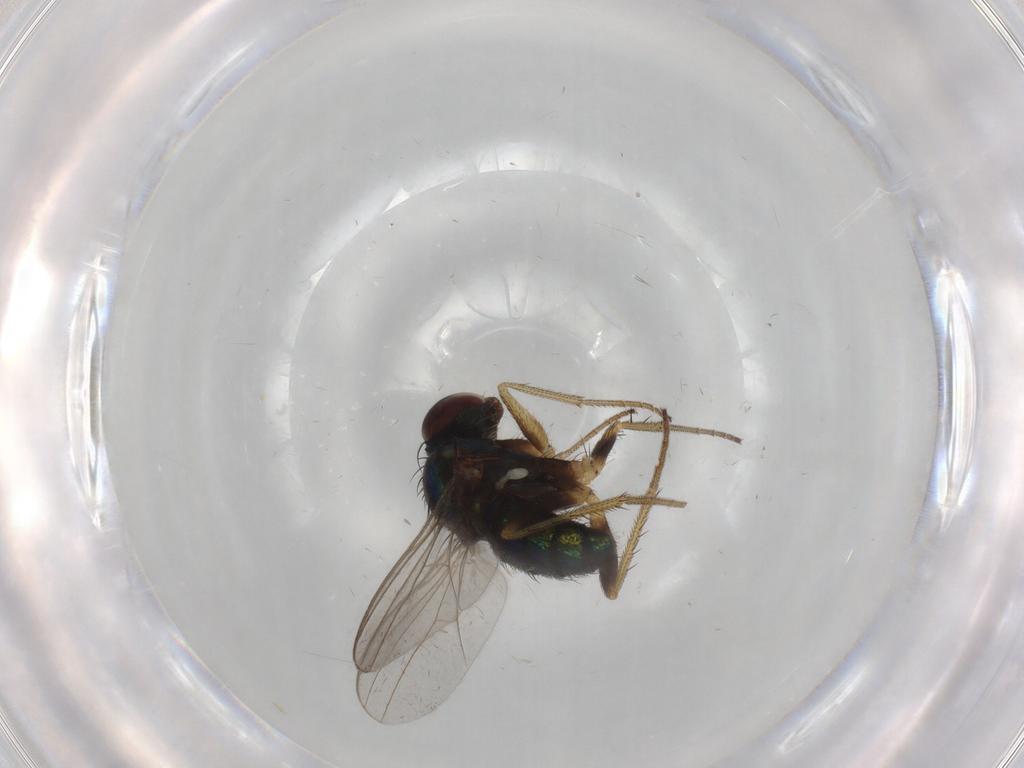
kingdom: Animalia
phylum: Arthropoda
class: Insecta
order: Diptera
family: Dolichopodidae
